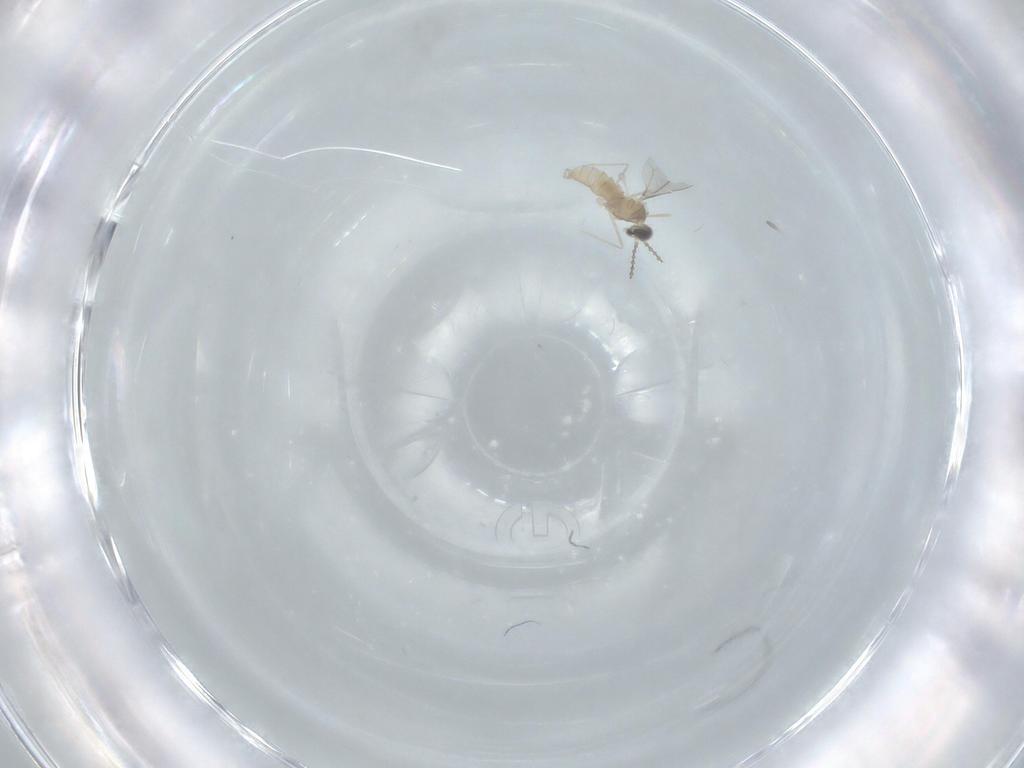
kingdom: Animalia
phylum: Arthropoda
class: Insecta
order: Diptera
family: Cecidomyiidae
